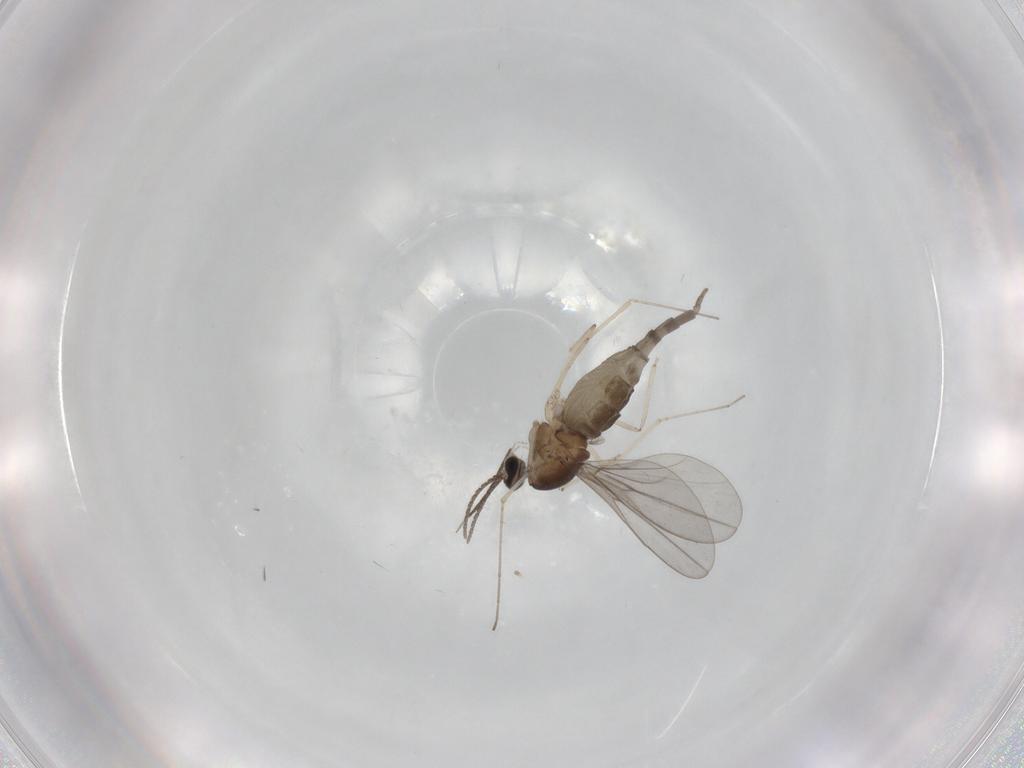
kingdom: Animalia
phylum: Arthropoda
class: Insecta
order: Diptera
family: Cecidomyiidae
